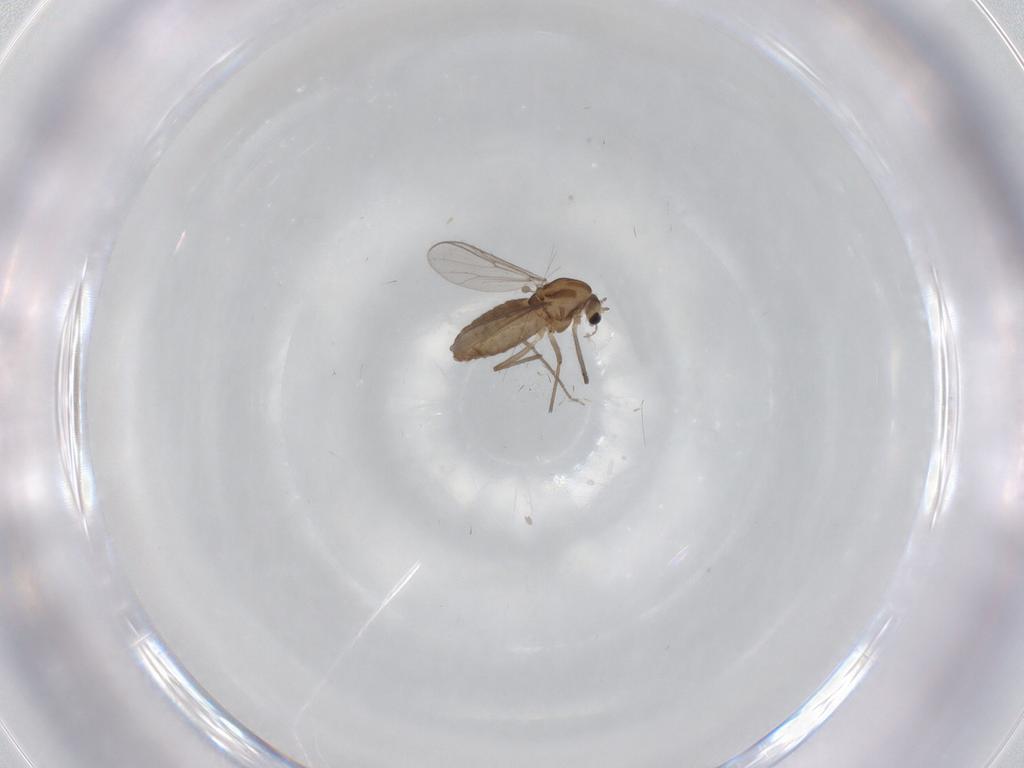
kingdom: Animalia
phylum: Arthropoda
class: Insecta
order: Diptera
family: Chironomidae
